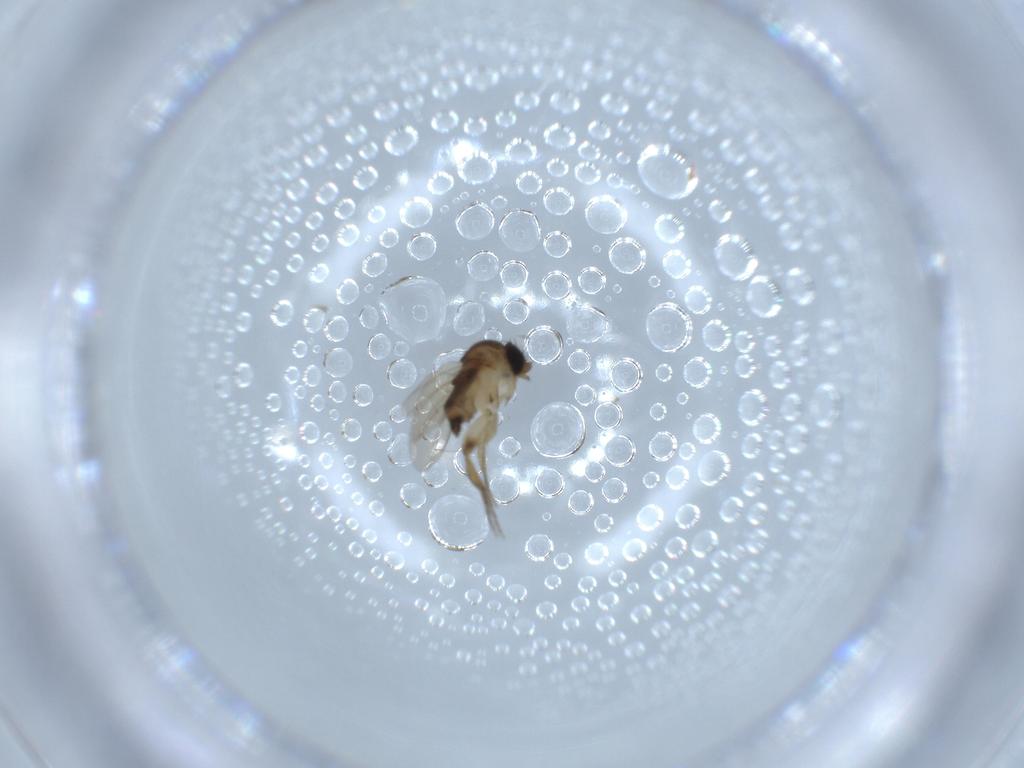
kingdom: Animalia
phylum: Arthropoda
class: Insecta
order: Diptera
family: Phoridae
